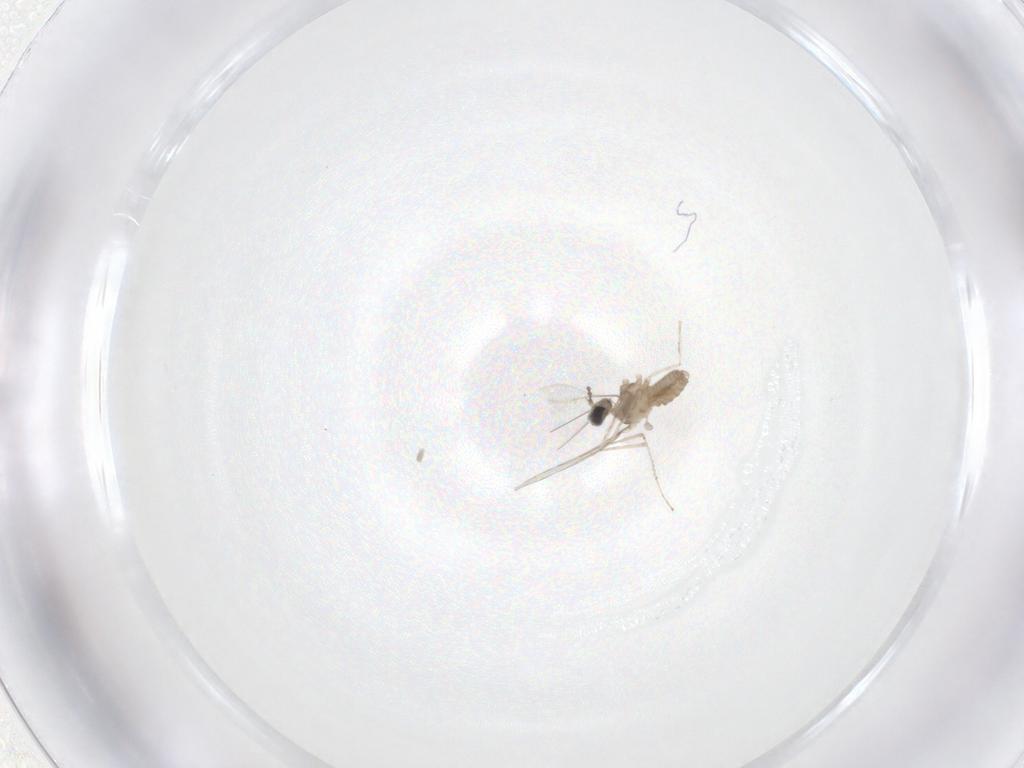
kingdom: Animalia
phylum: Arthropoda
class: Insecta
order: Diptera
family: Cecidomyiidae
